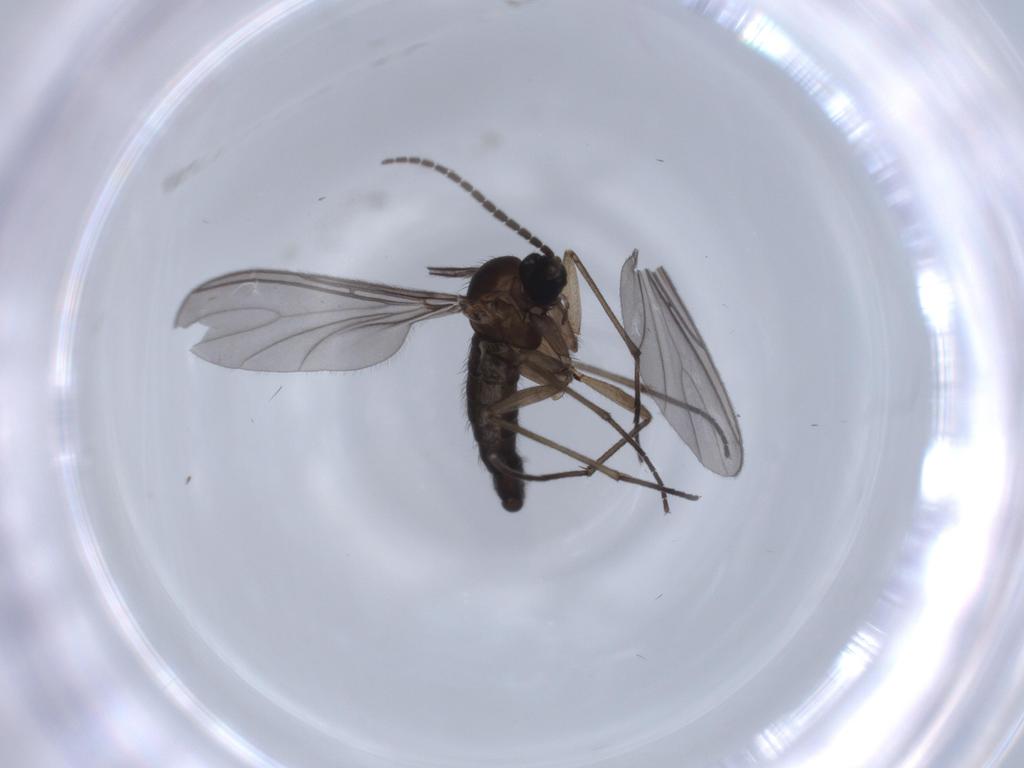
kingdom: Animalia
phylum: Arthropoda
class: Insecta
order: Diptera
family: Sciaridae
